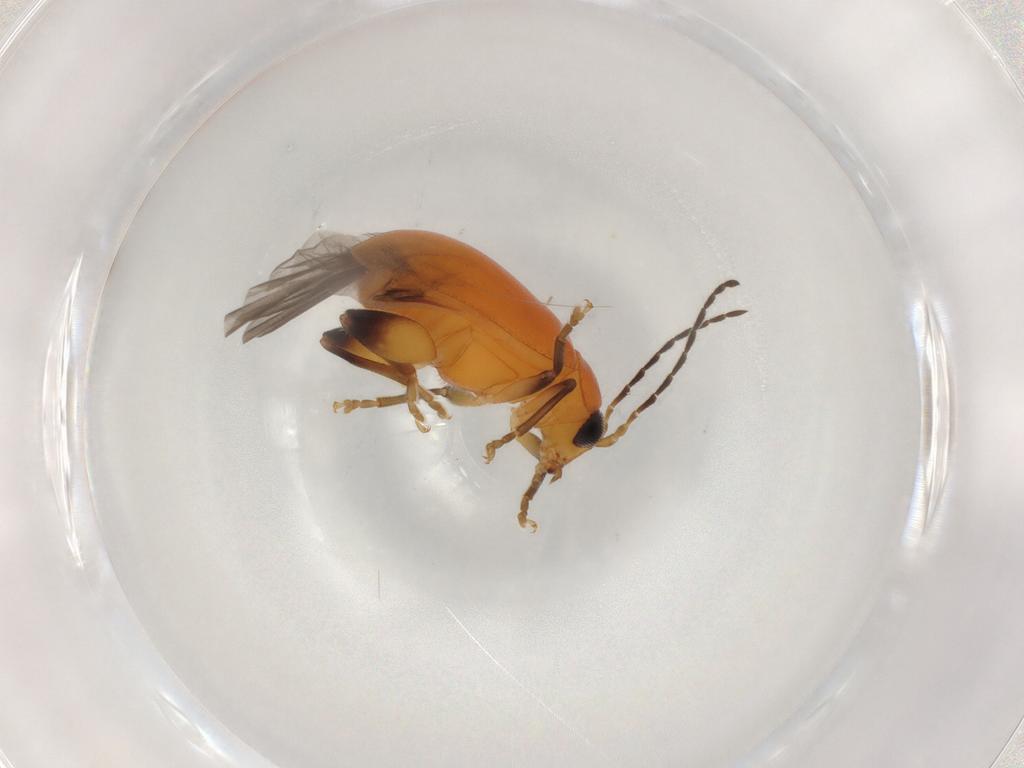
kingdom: Animalia
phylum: Arthropoda
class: Insecta
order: Coleoptera
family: Chrysomelidae
